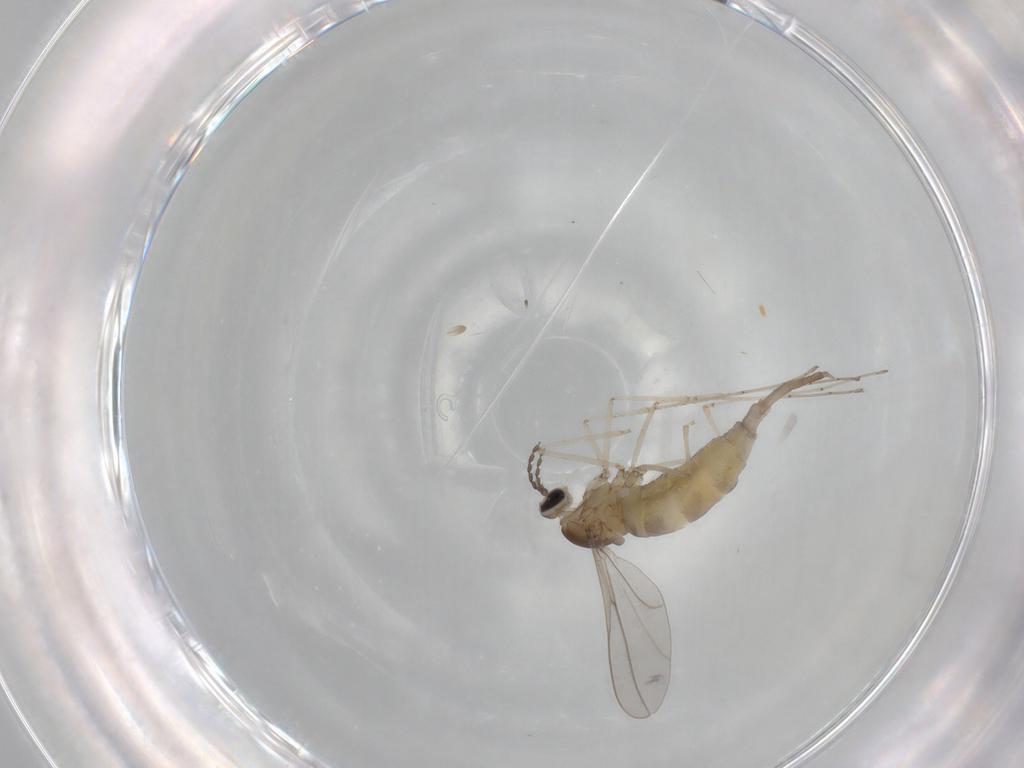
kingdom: Animalia
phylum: Arthropoda
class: Insecta
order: Diptera
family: Cecidomyiidae
